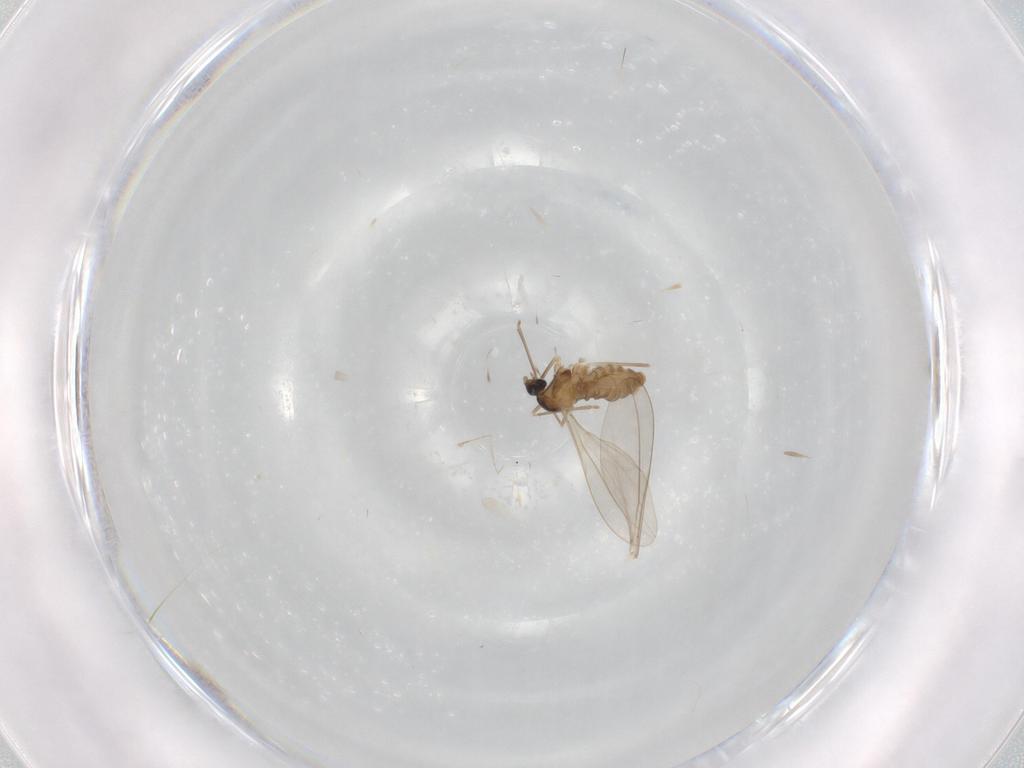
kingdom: Animalia
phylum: Arthropoda
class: Insecta
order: Diptera
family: Cecidomyiidae
